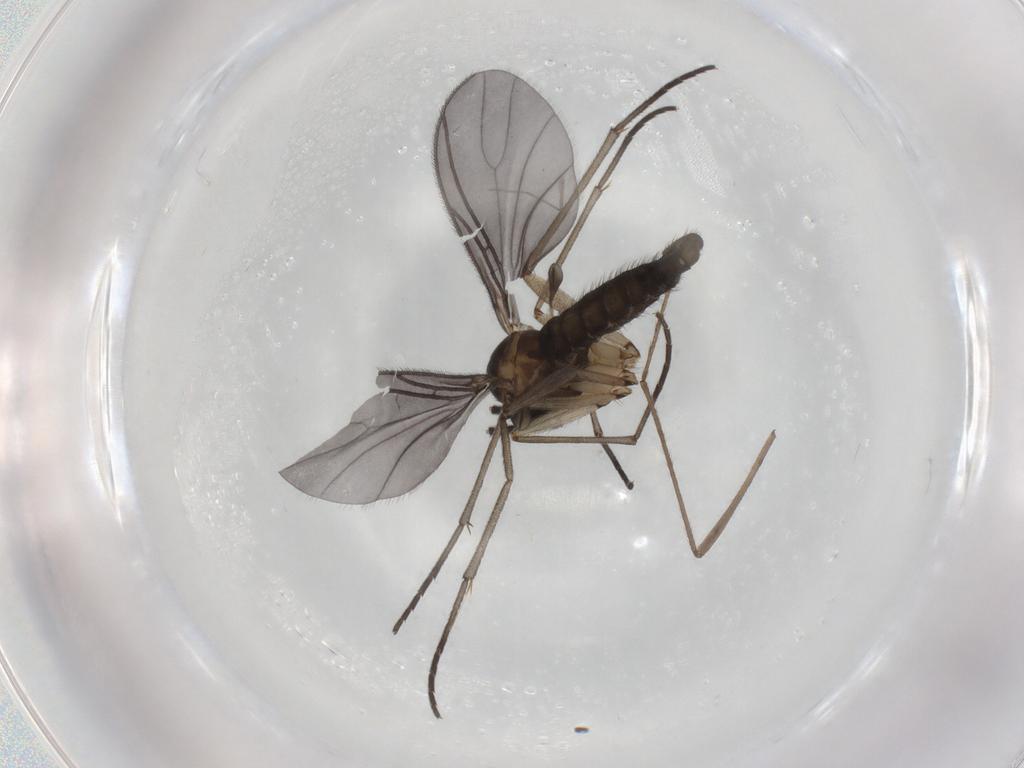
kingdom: Animalia
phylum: Arthropoda
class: Insecta
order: Diptera
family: Sciaridae
